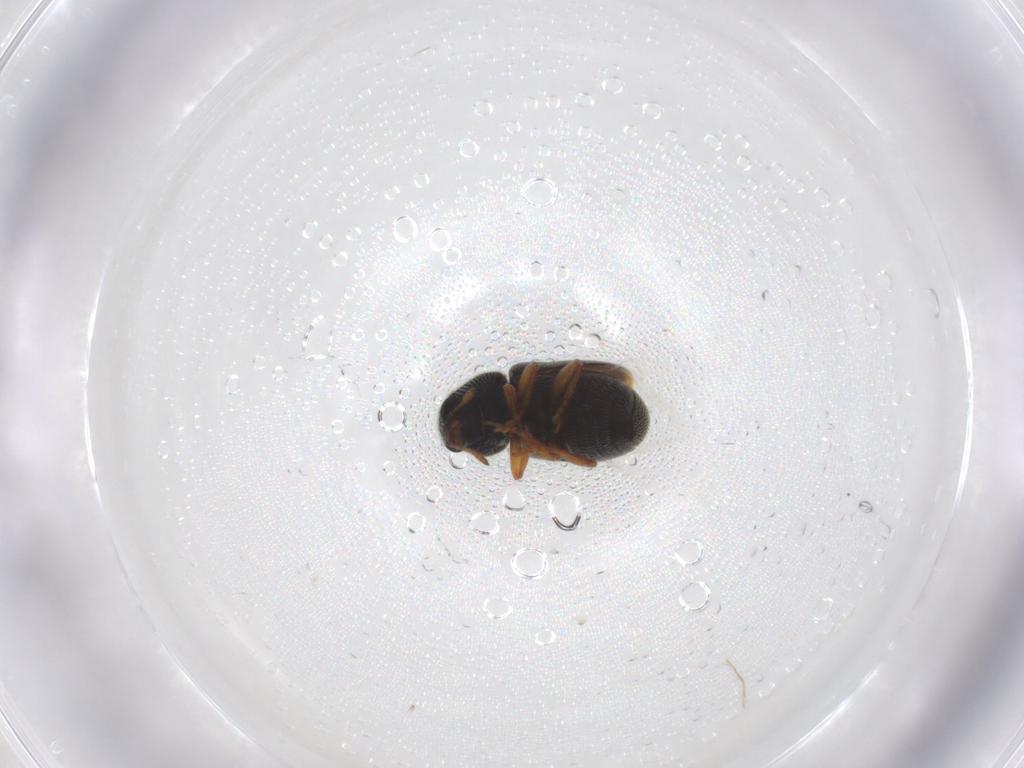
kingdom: Animalia
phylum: Arthropoda
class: Insecta
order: Coleoptera
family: Anthribidae
